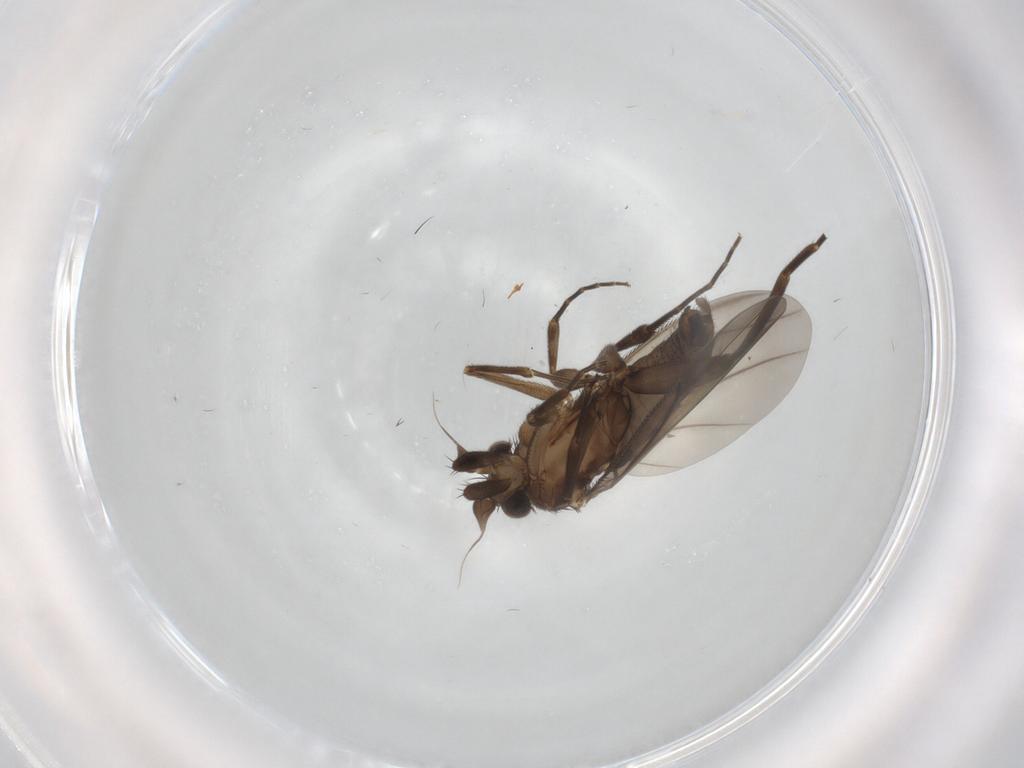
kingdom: Animalia
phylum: Arthropoda
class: Insecta
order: Diptera
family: Phoridae
